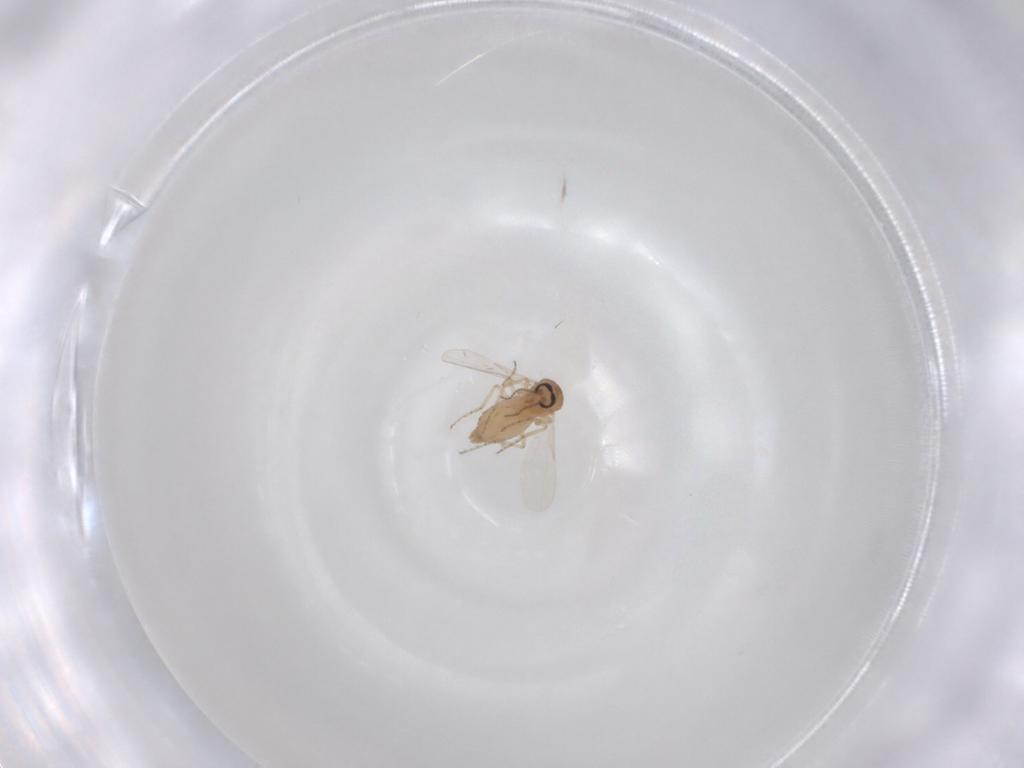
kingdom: Animalia
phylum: Arthropoda
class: Insecta
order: Diptera
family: Ceratopogonidae
